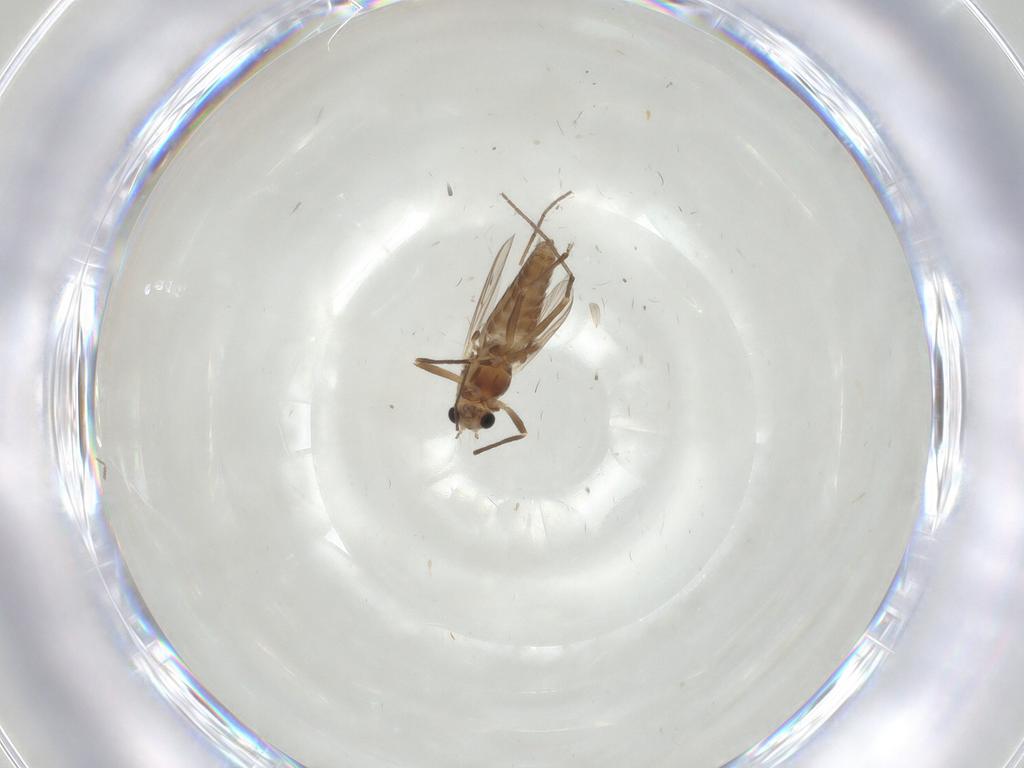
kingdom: Animalia
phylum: Arthropoda
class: Insecta
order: Diptera
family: Chironomidae
